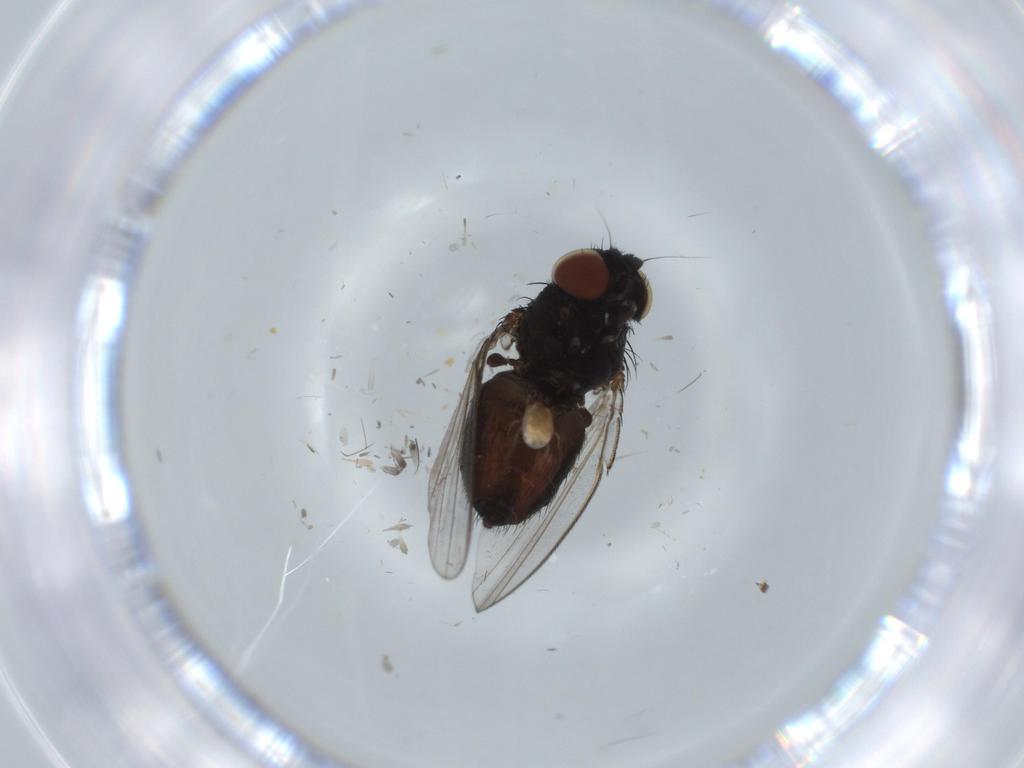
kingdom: Animalia
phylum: Arthropoda
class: Insecta
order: Diptera
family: Milichiidae
